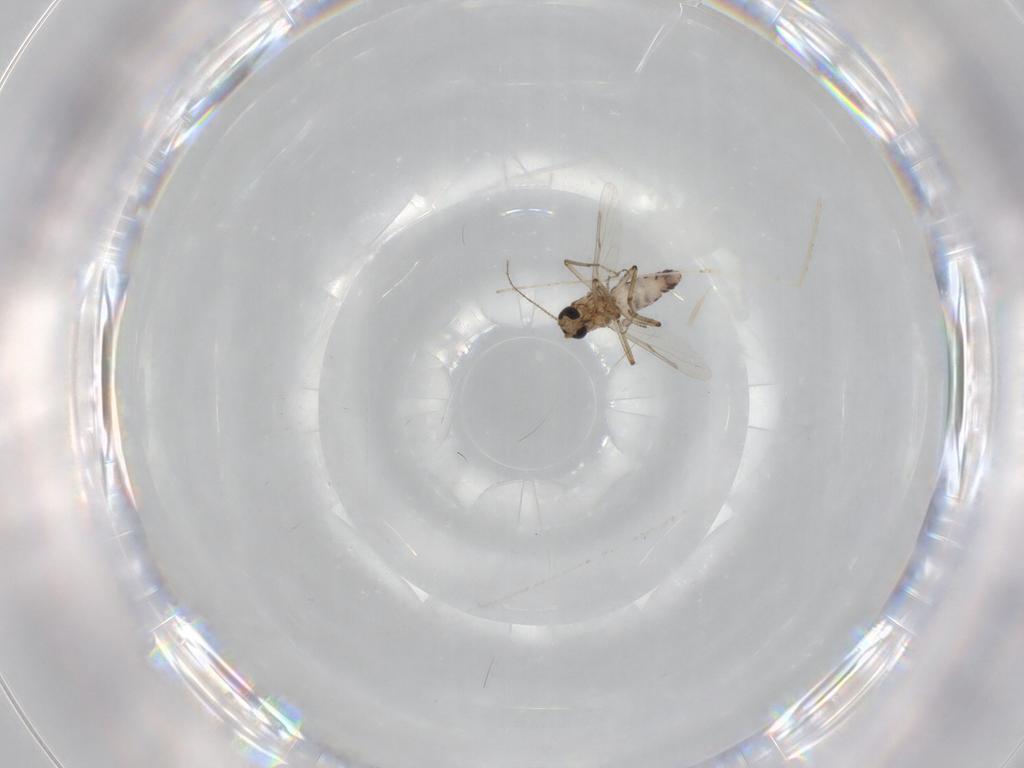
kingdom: Animalia
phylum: Arthropoda
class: Insecta
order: Diptera
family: Ceratopogonidae
